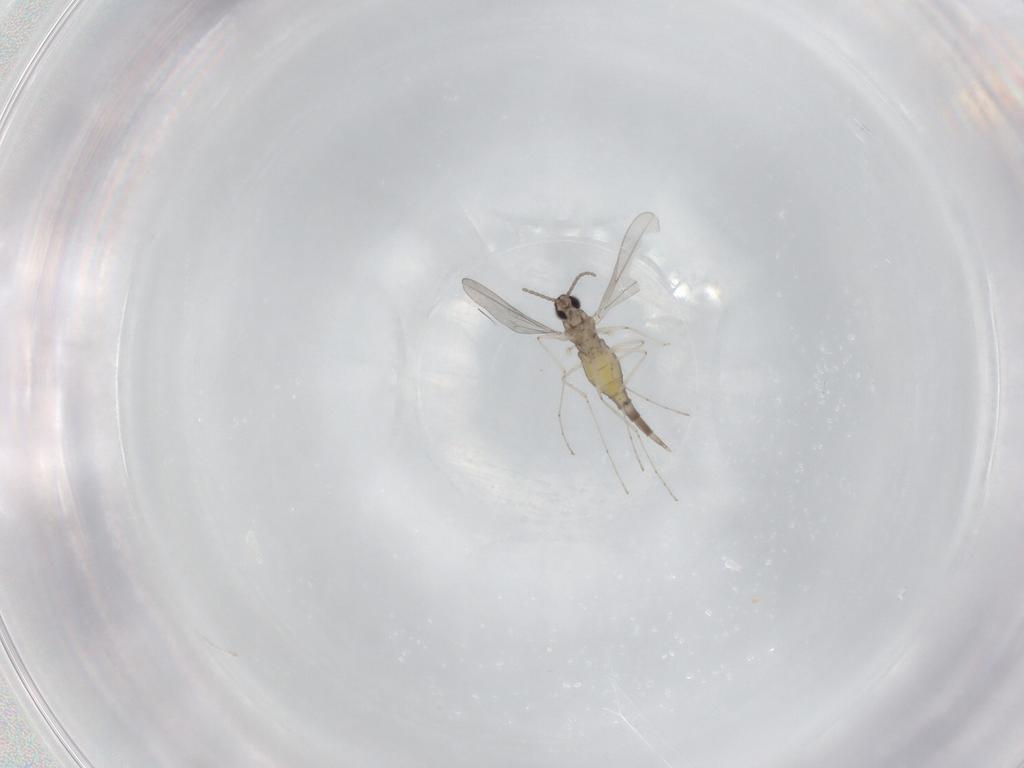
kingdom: Animalia
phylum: Arthropoda
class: Insecta
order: Diptera
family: Cecidomyiidae
